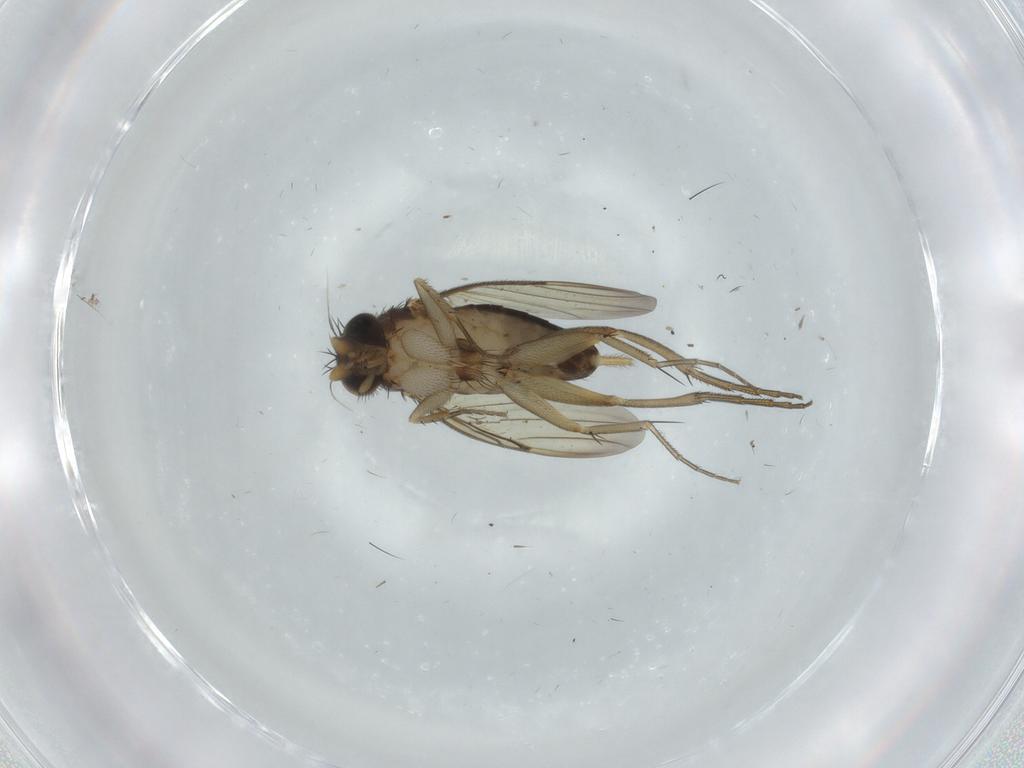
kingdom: Animalia
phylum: Arthropoda
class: Insecta
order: Diptera
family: Phoridae
